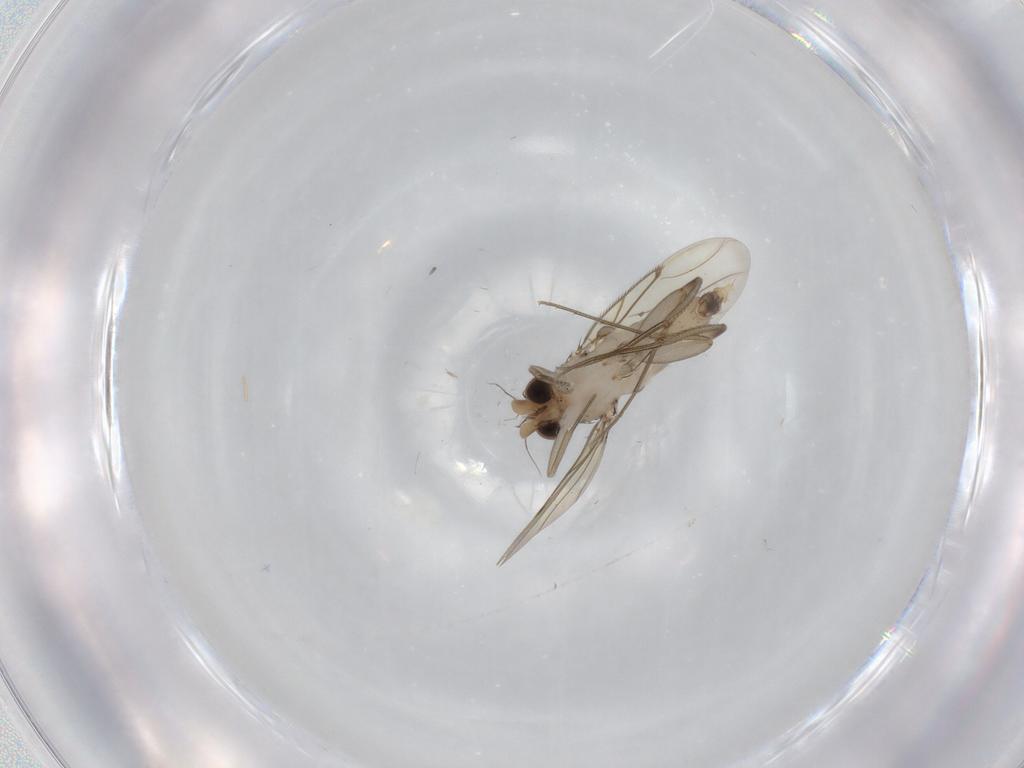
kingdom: Animalia
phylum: Arthropoda
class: Insecta
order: Diptera
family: Phoridae
